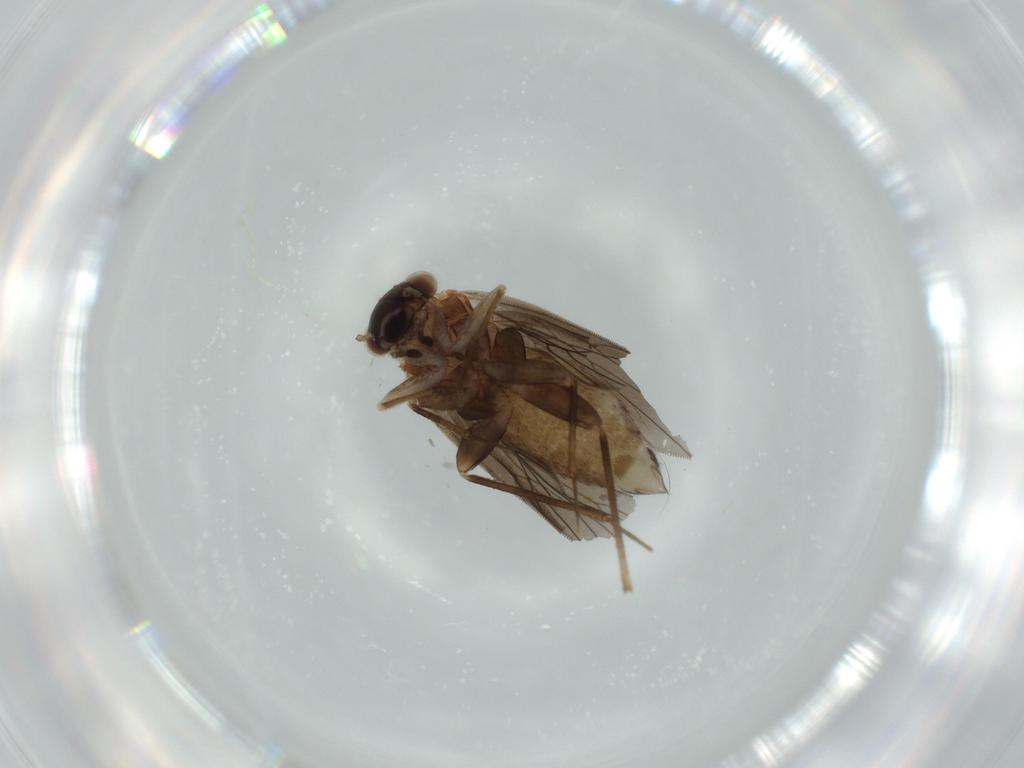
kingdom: Animalia
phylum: Arthropoda
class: Insecta
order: Psocodea
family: Lepidopsocidae
